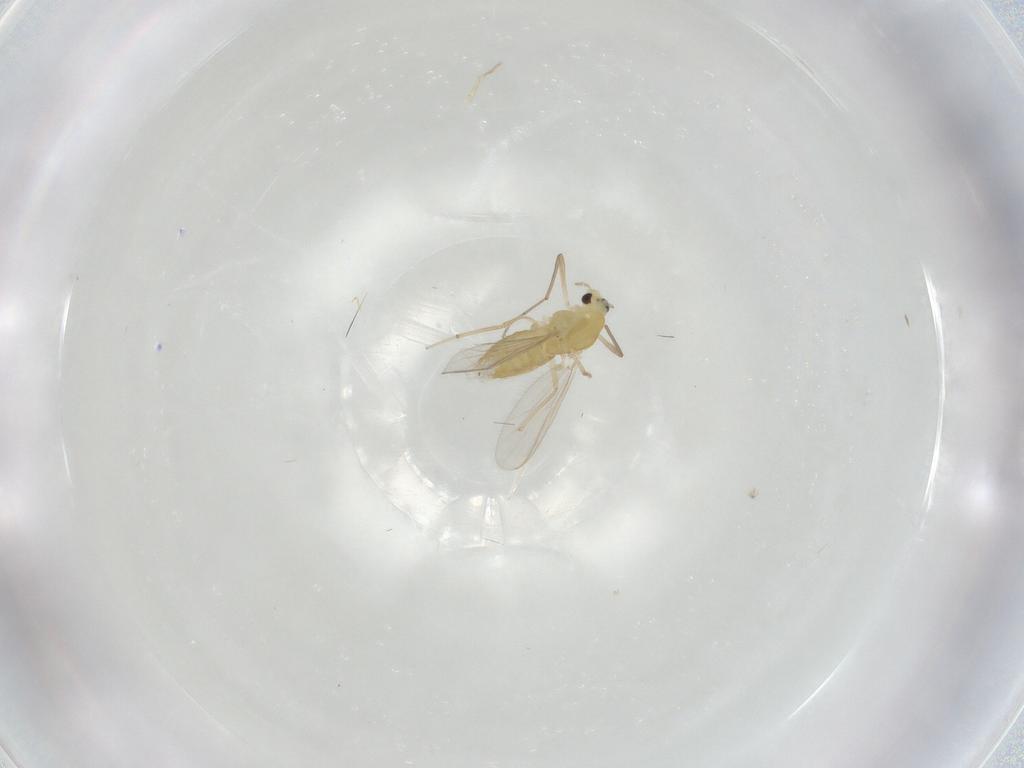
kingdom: Animalia
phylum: Arthropoda
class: Insecta
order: Diptera
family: Chironomidae
